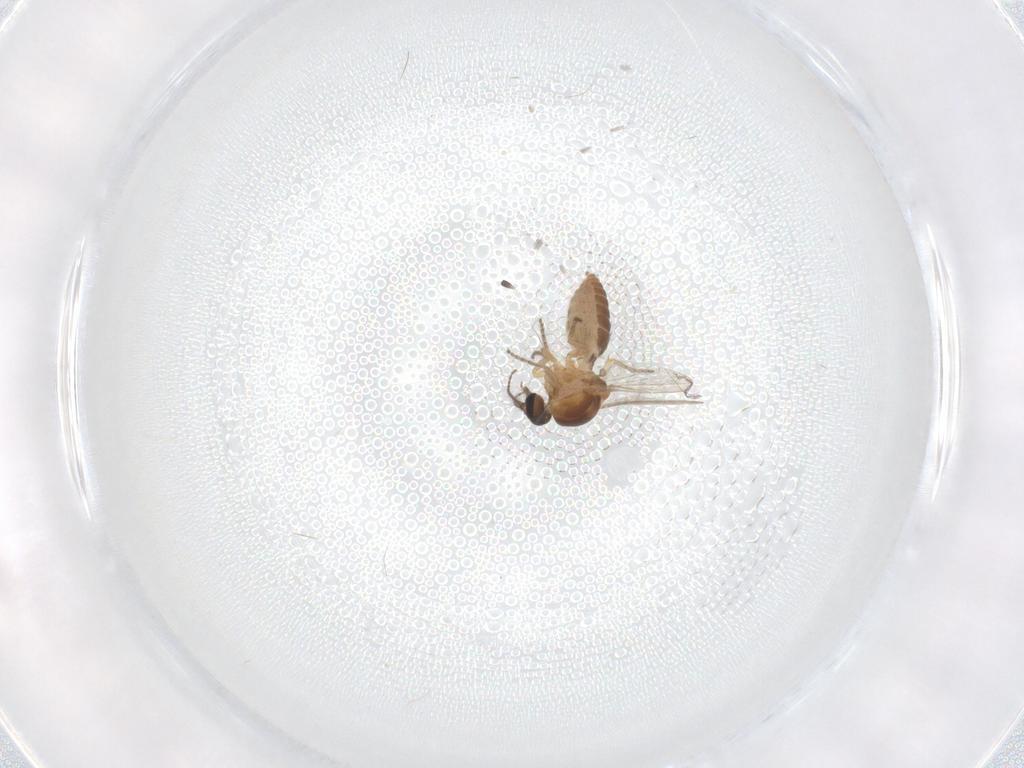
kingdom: Animalia
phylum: Arthropoda
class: Insecta
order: Diptera
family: Ceratopogonidae
